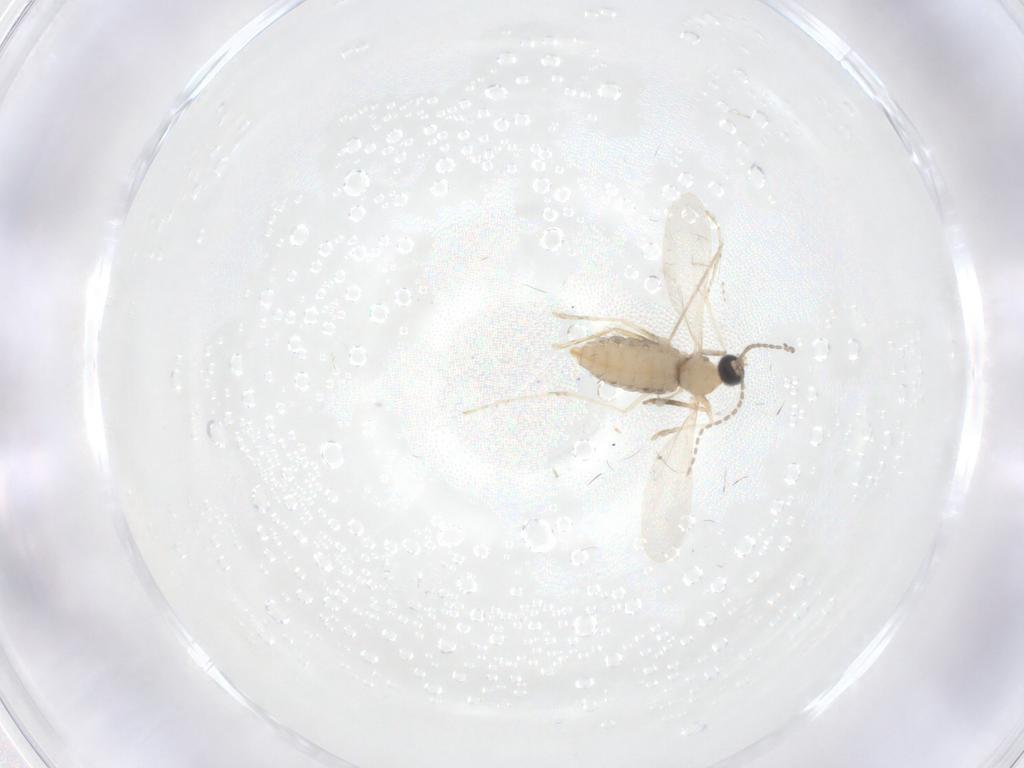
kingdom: Animalia
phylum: Arthropoda
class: Insecta
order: Diptera
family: Cecidomyiidae
